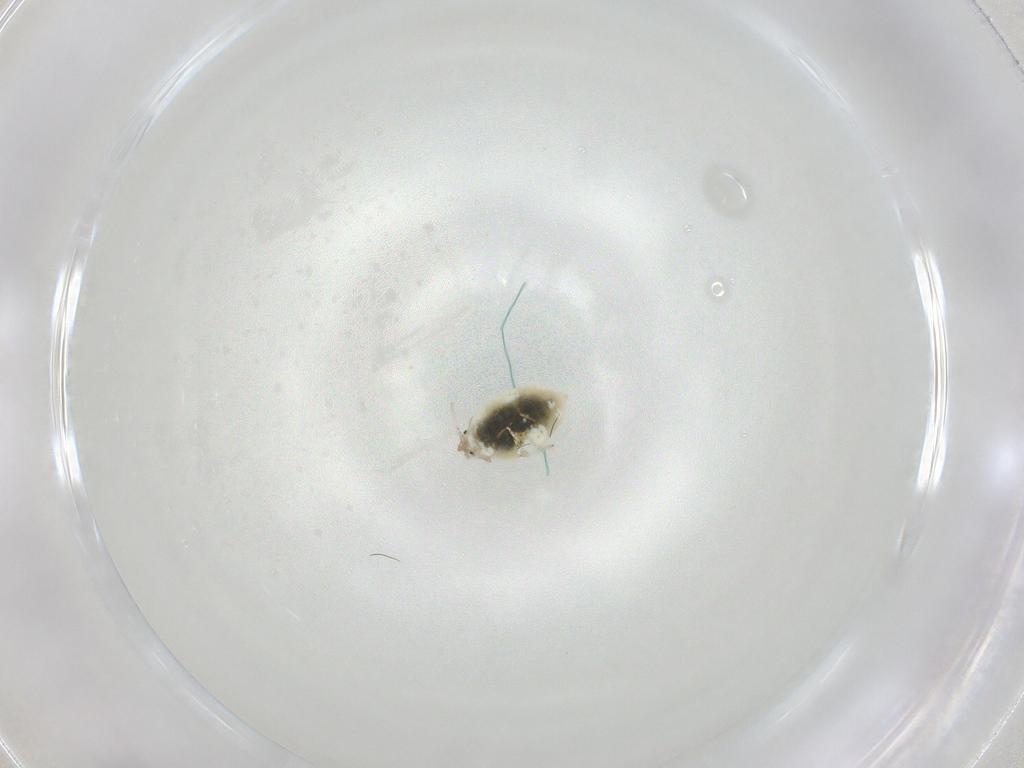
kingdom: Animalia
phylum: Arthropoda
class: Insecta
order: Neuroptera
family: Coniopterygidae
